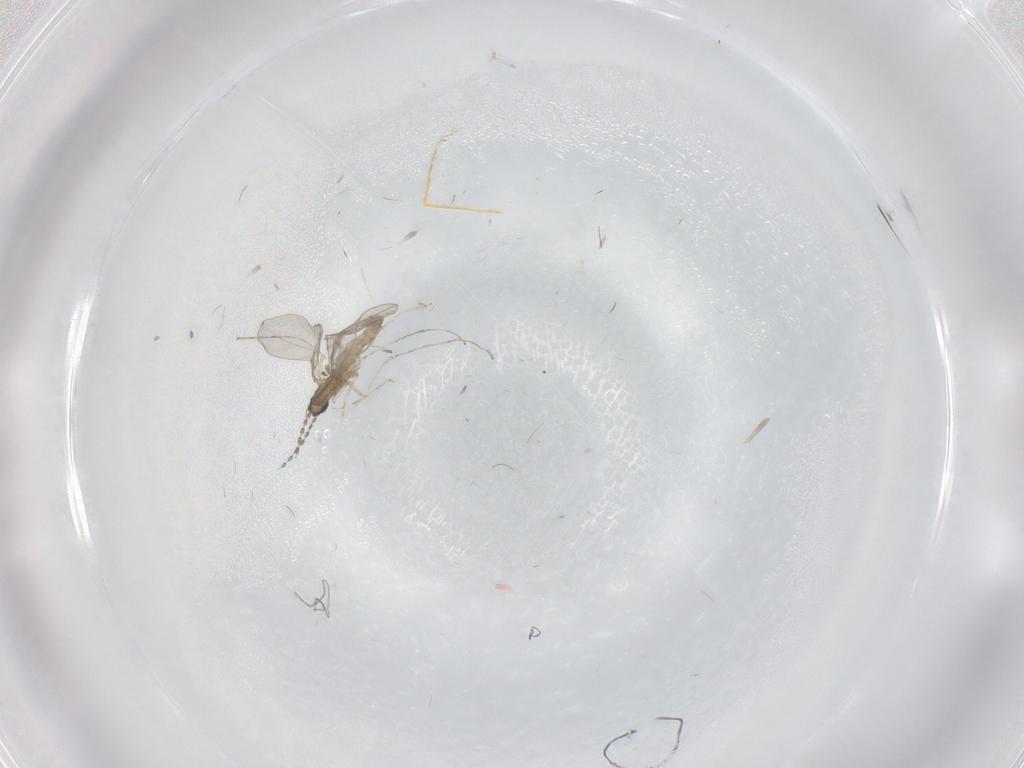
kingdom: Animalia
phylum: Arthropoda
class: Insecta
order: Diptera
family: Cecidomyiidae
